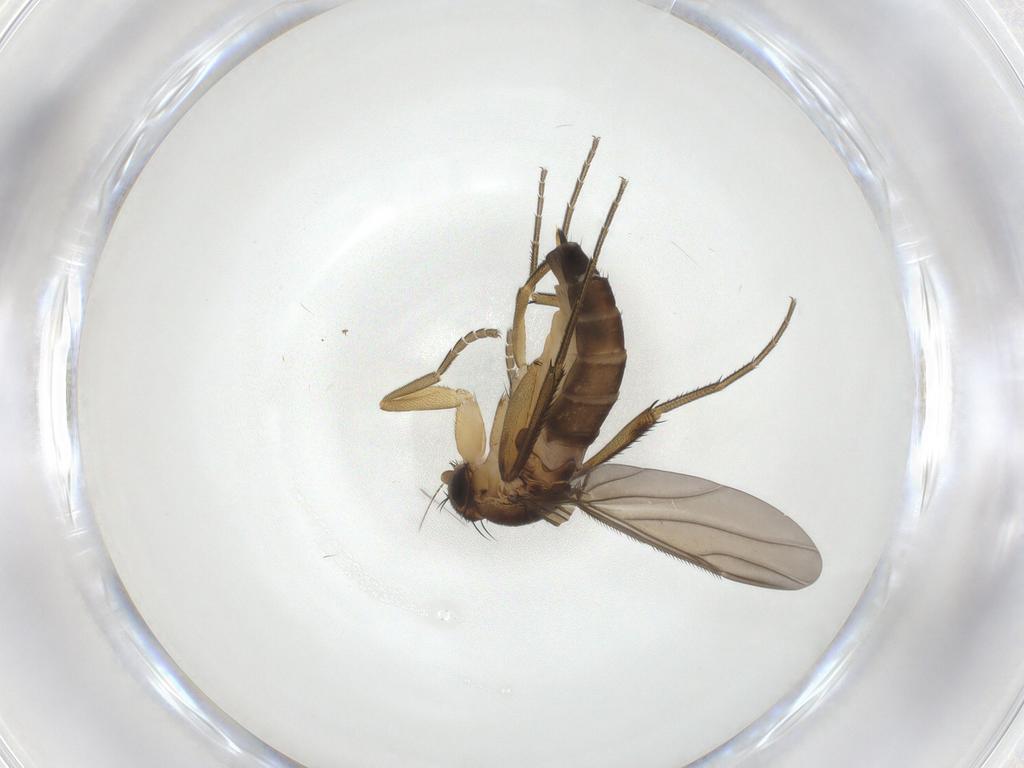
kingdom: Animalia
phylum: Arthropoda
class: Insecta
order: Diptera
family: Phoridae
